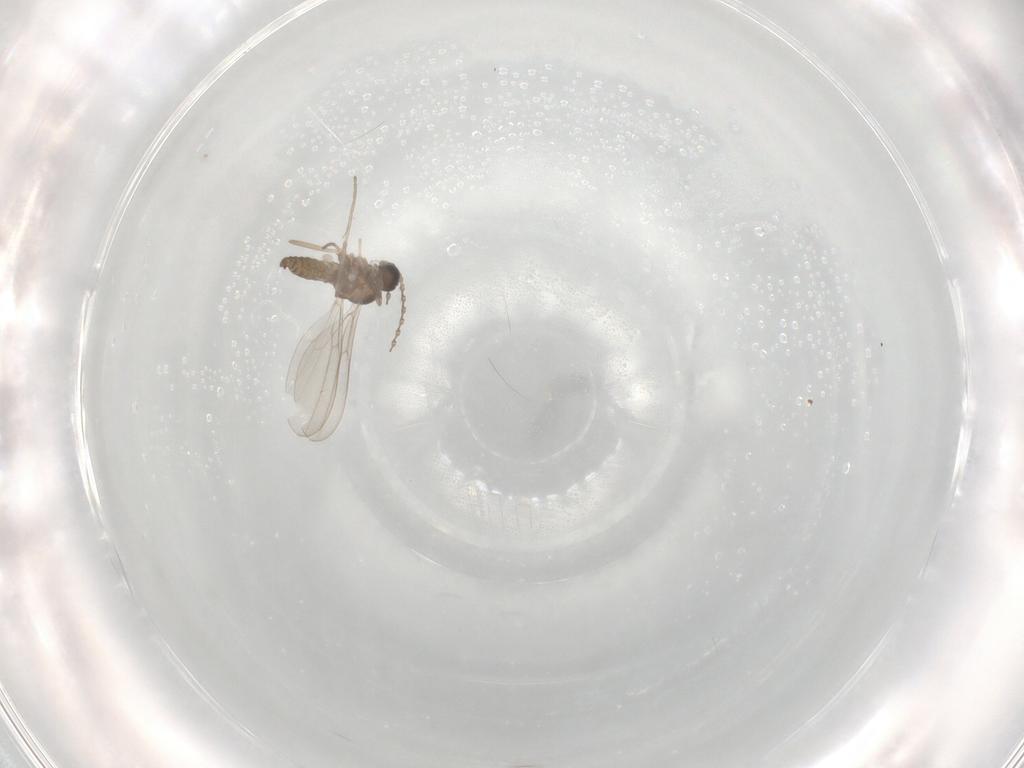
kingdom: Animalia
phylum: Arthropoda
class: Insecta
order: Diptera
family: Cecidomyiidae
